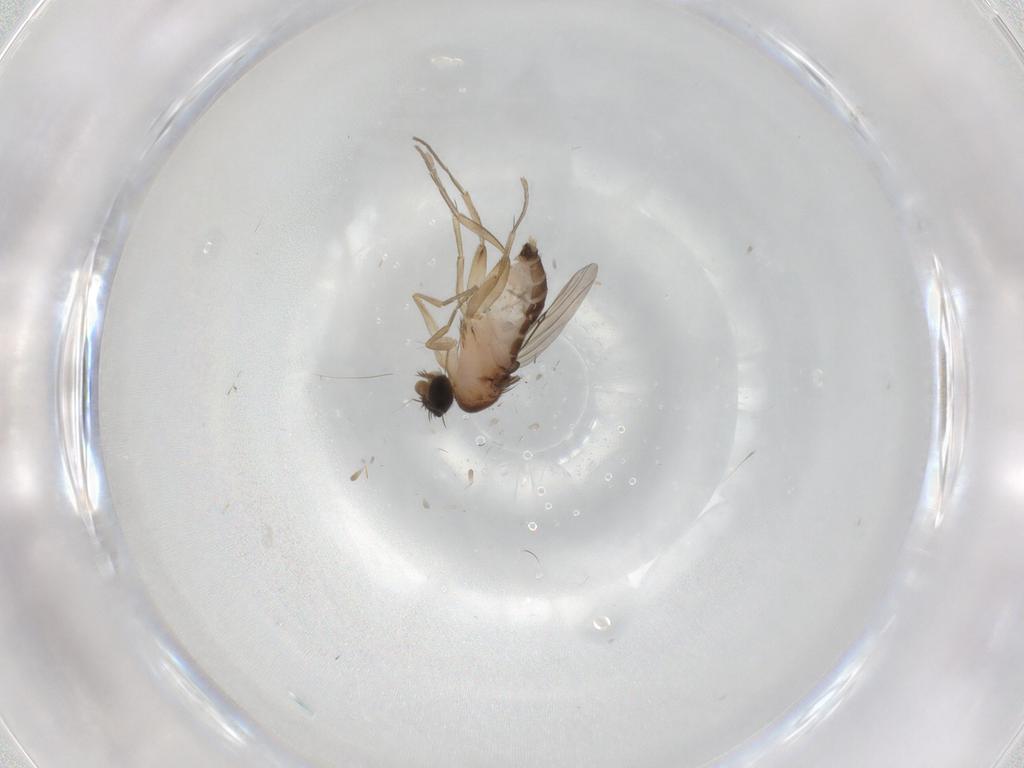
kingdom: Animalia
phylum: Arthropoda
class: Insecta
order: Diptera
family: Phoridae
